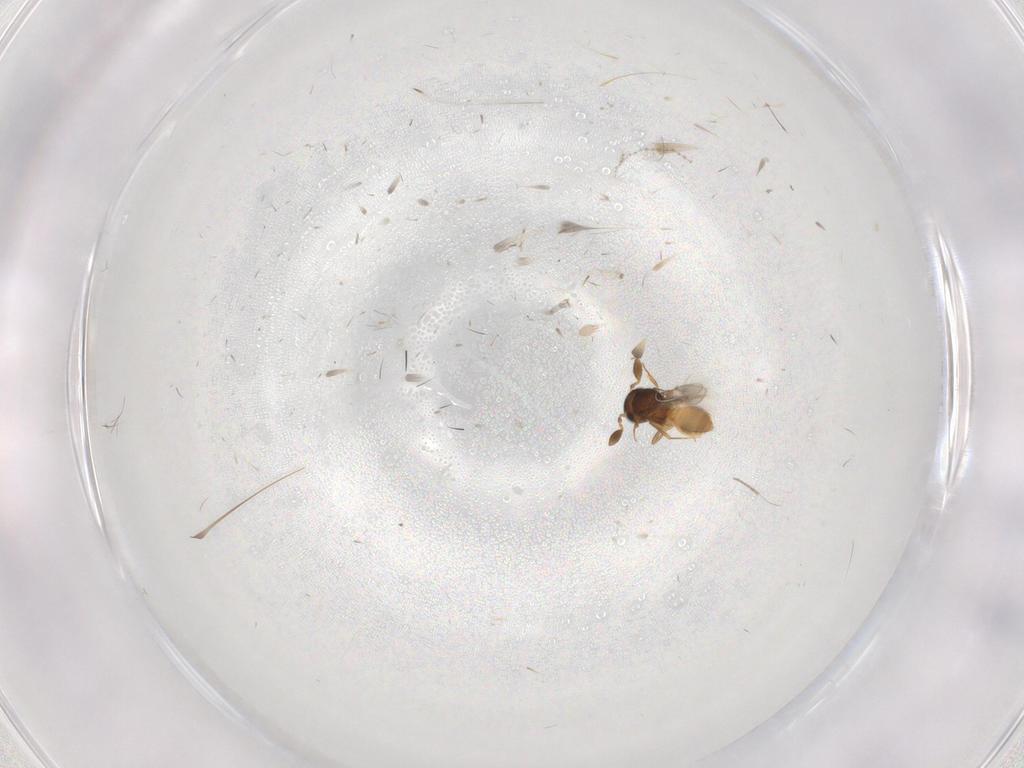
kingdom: Animalia
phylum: Arthropoda
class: Insecta
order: Hymenoptera
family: Scelionidae
